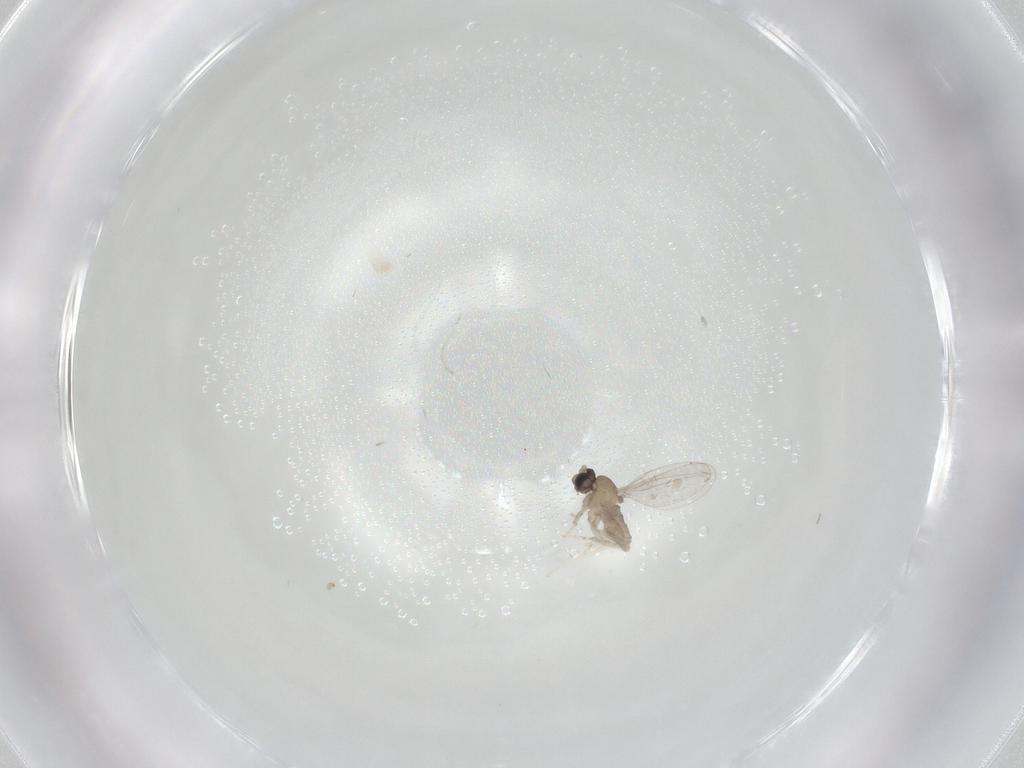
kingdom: Animalia
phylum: Arthropoda
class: Insecta
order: Diptera
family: Cecidomyiidae
